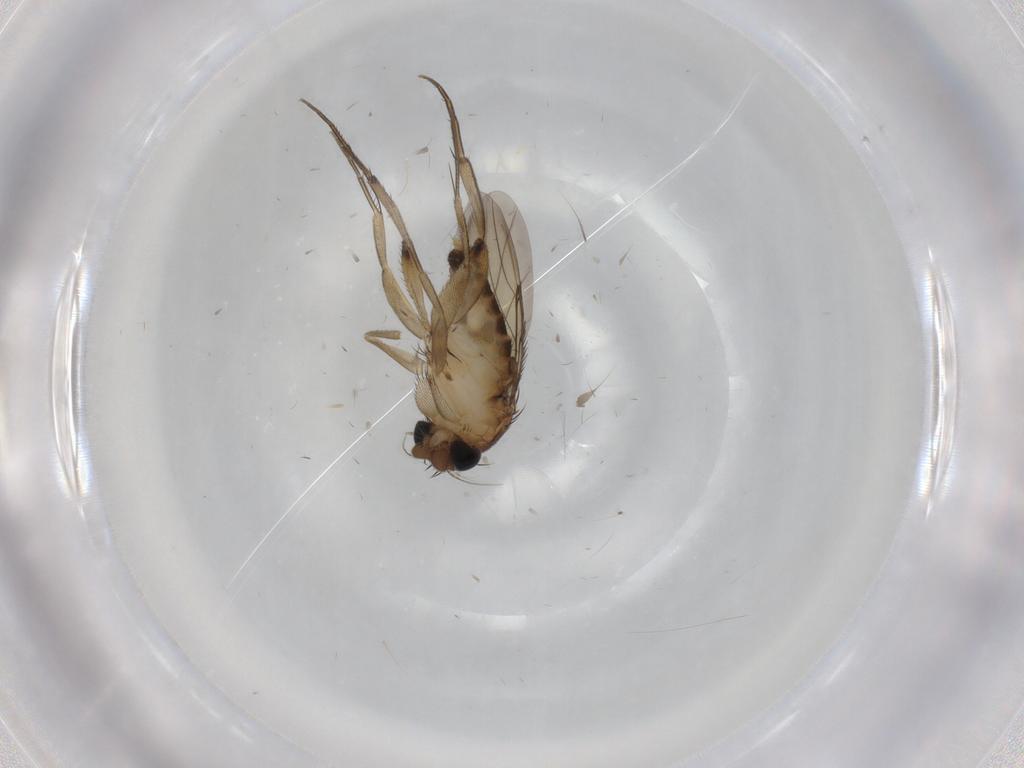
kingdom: Animalia
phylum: Arthropoda
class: Insecta
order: Diptera
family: Phoridae
